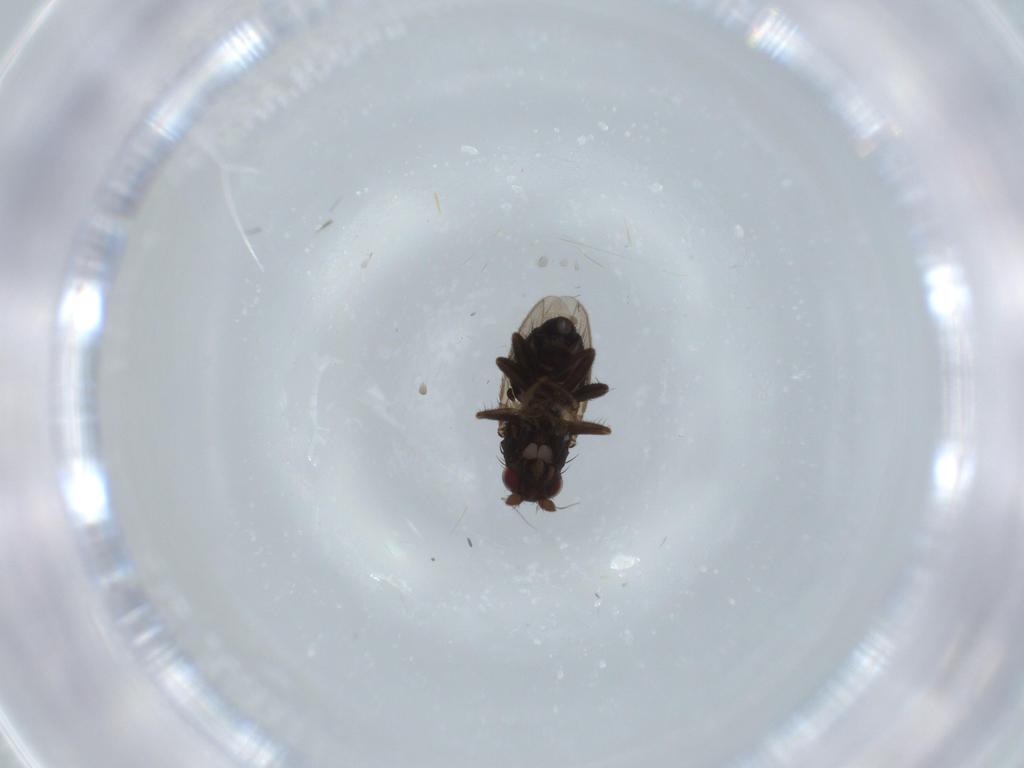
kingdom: Animalia
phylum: Arthropoda
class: Insecta
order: Diptera
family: Sphaeroceridae
